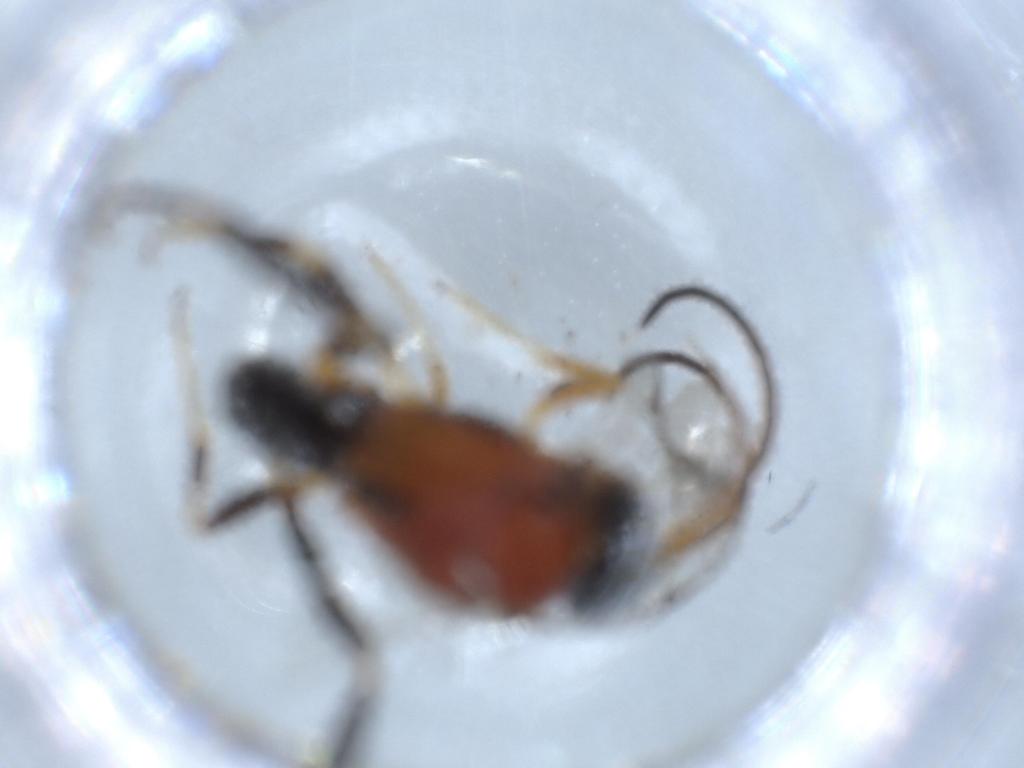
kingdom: Animalia
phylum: Arthropoda
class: Insecta
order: Hymenoptera
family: Evaniidae
